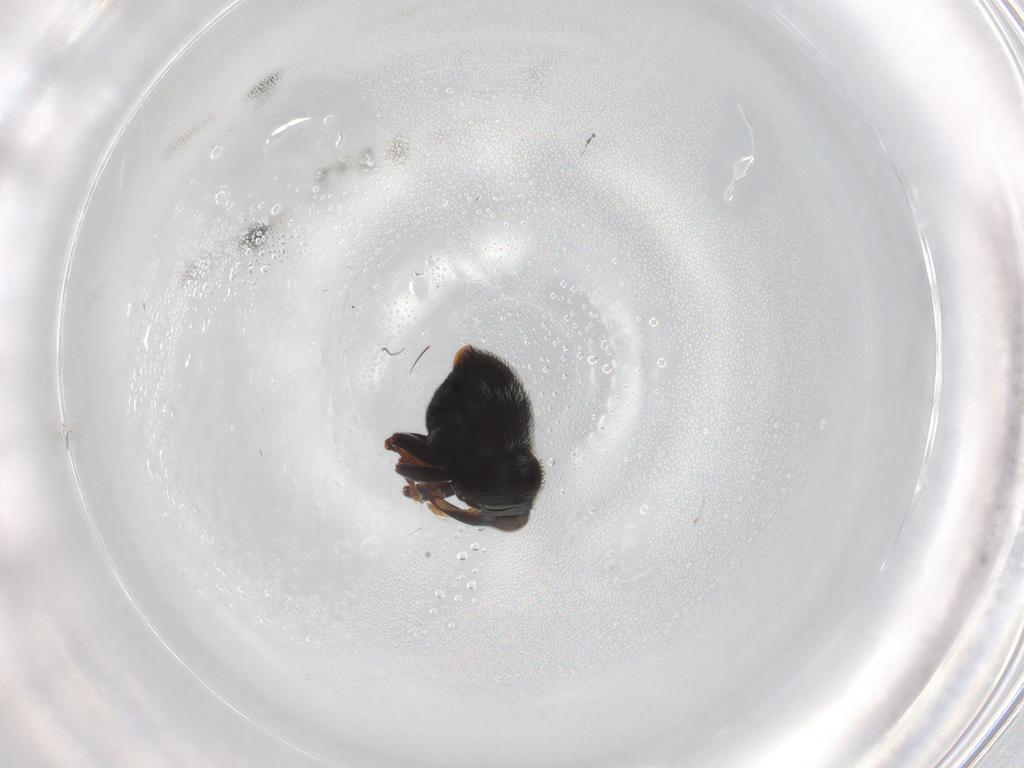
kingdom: Animalia
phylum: Arthropoda
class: Insecta
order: Coleoptera
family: Curculionidae
